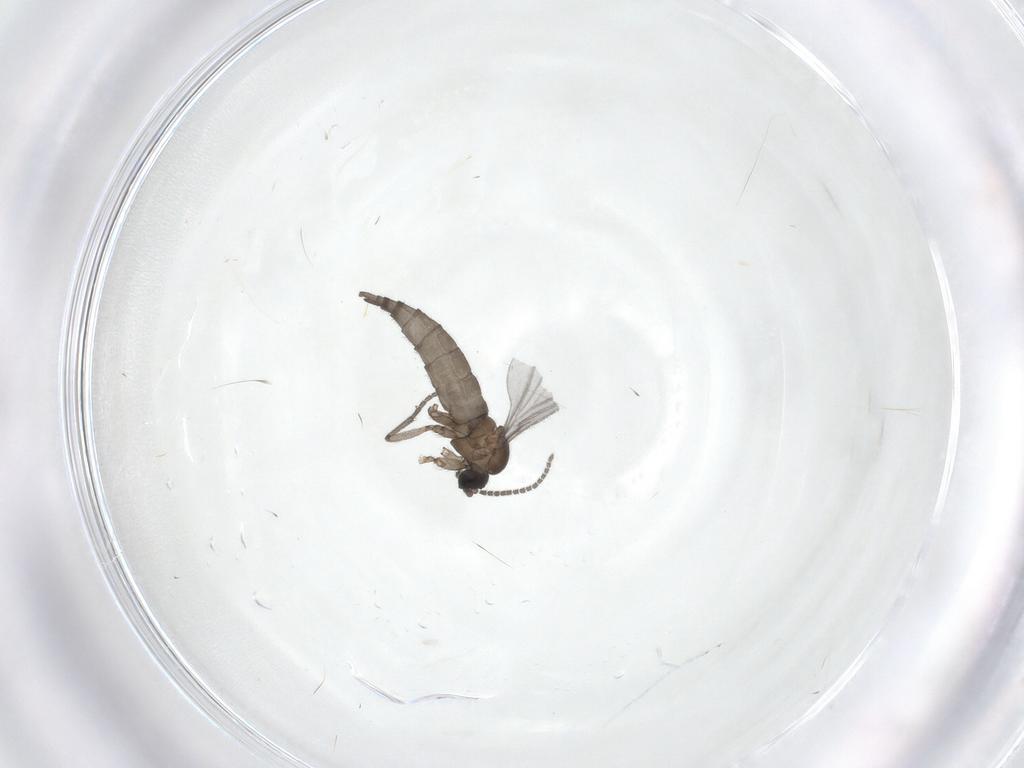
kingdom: Animalia
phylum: Arthropoda
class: Insecta
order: Diptera
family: Sciaridae
